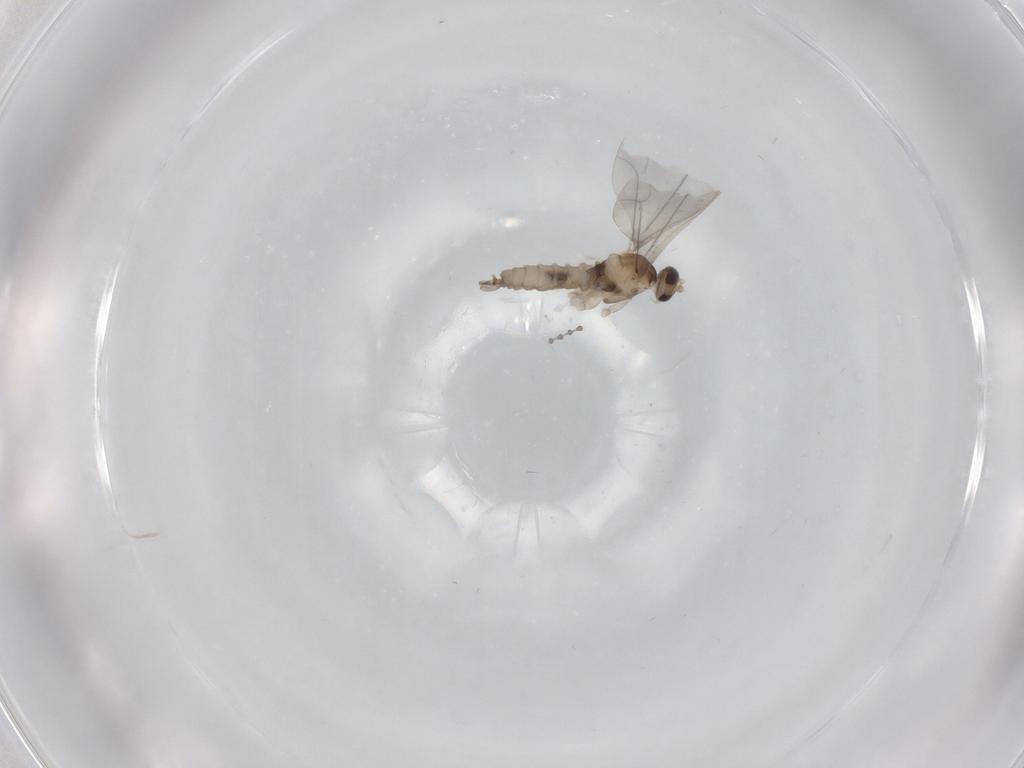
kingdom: Animalia
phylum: Arthropoda
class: Insecta
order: Diptera
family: Cecidomyiidae
